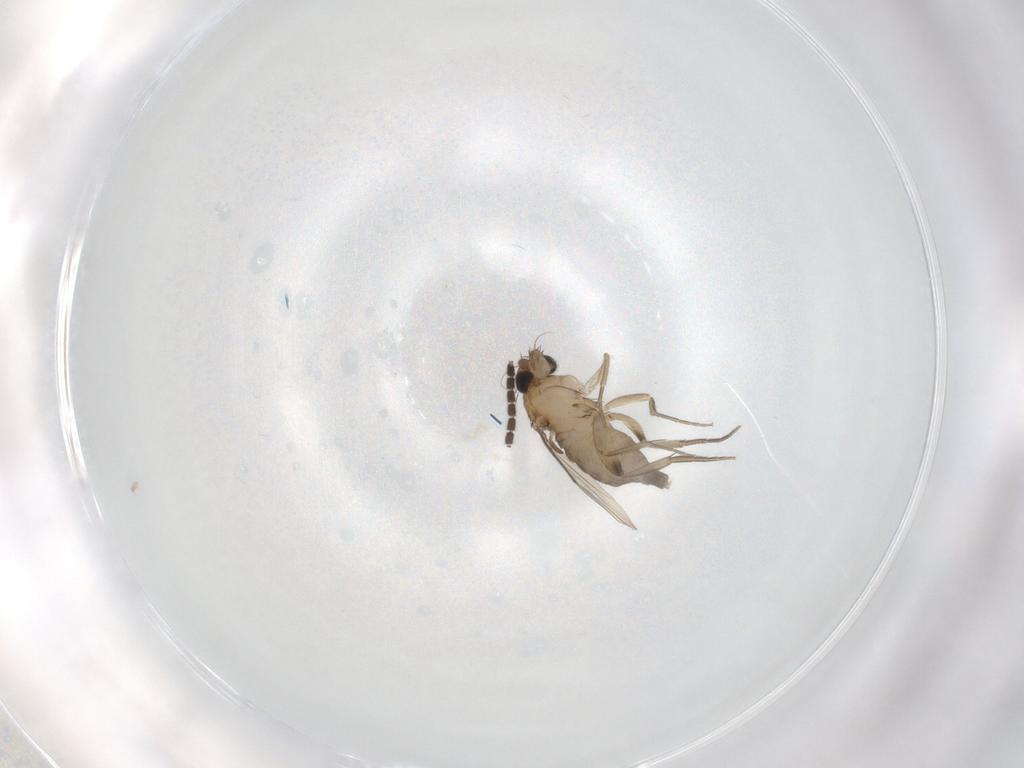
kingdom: Animalia
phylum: Arthropoda
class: Insecta
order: Diptera
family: Phoridae
